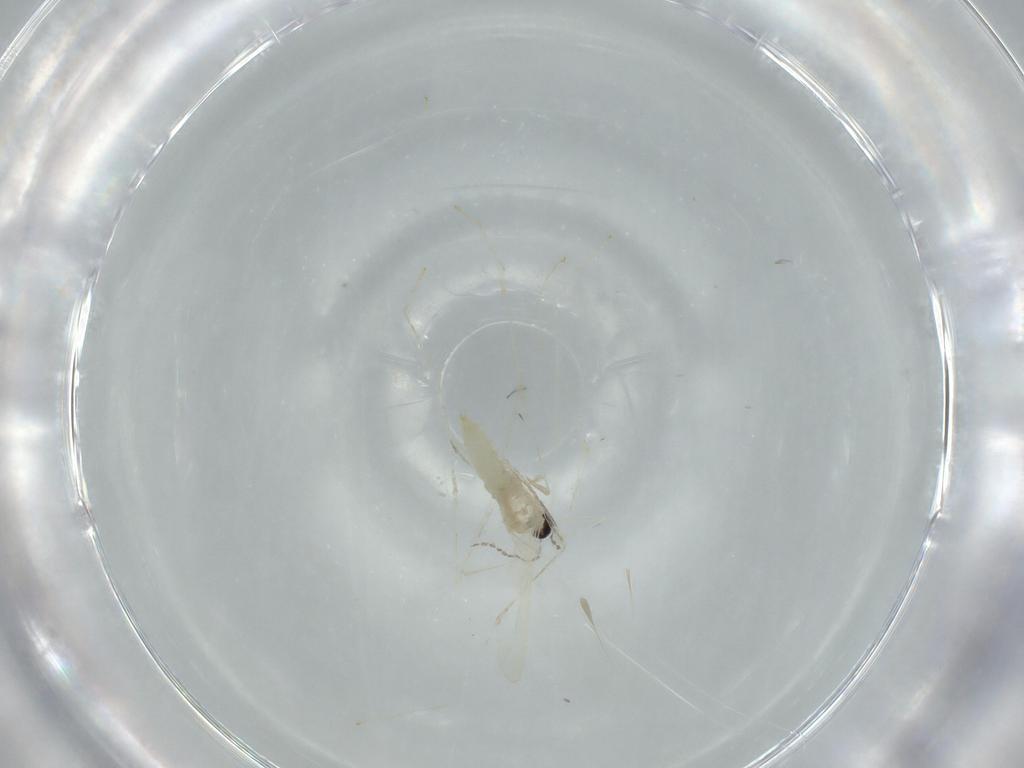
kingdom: Animalia
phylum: Arthropoda
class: Insecta
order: Diptera
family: Cecidomyiidae
